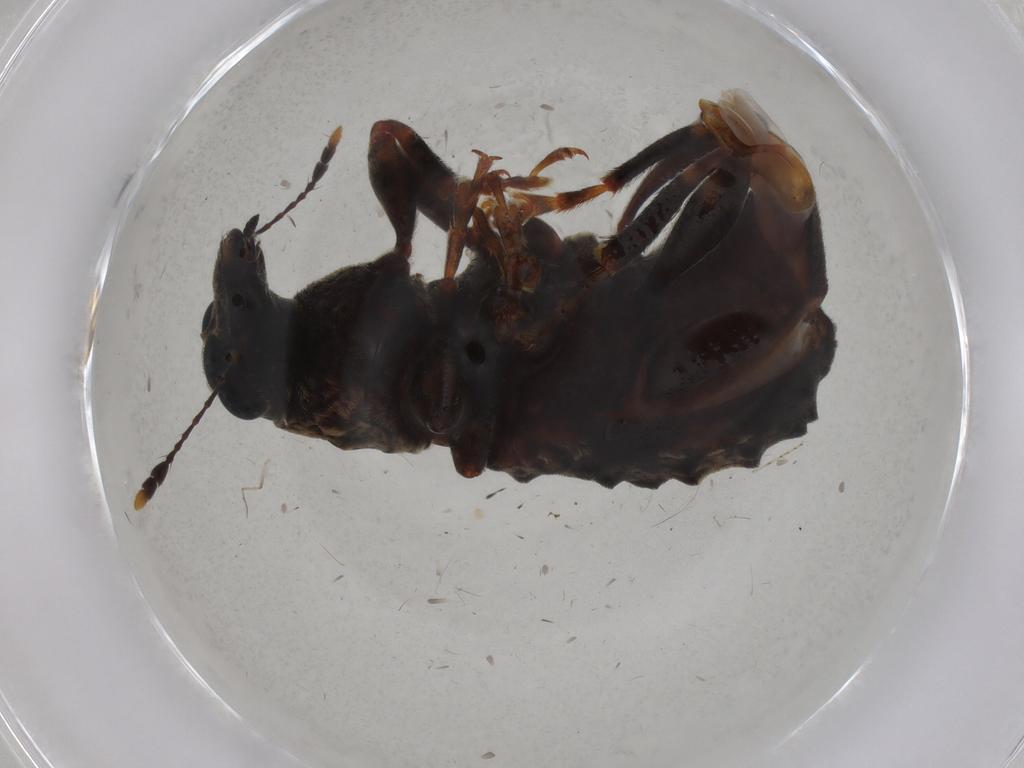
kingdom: Animalia
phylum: Arthropoda
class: Insecta
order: Coleoptera
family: Anthribidae
